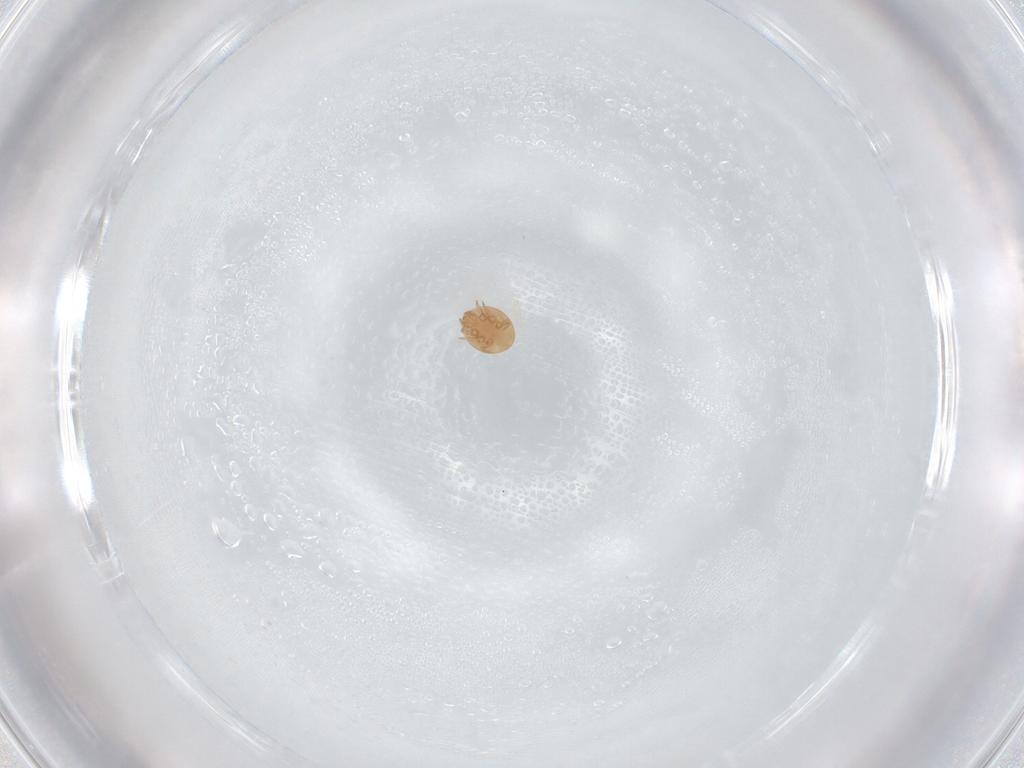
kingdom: Animalia
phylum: Arthropoda
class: Arachnida
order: Mesostigmata
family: Trematuridae
